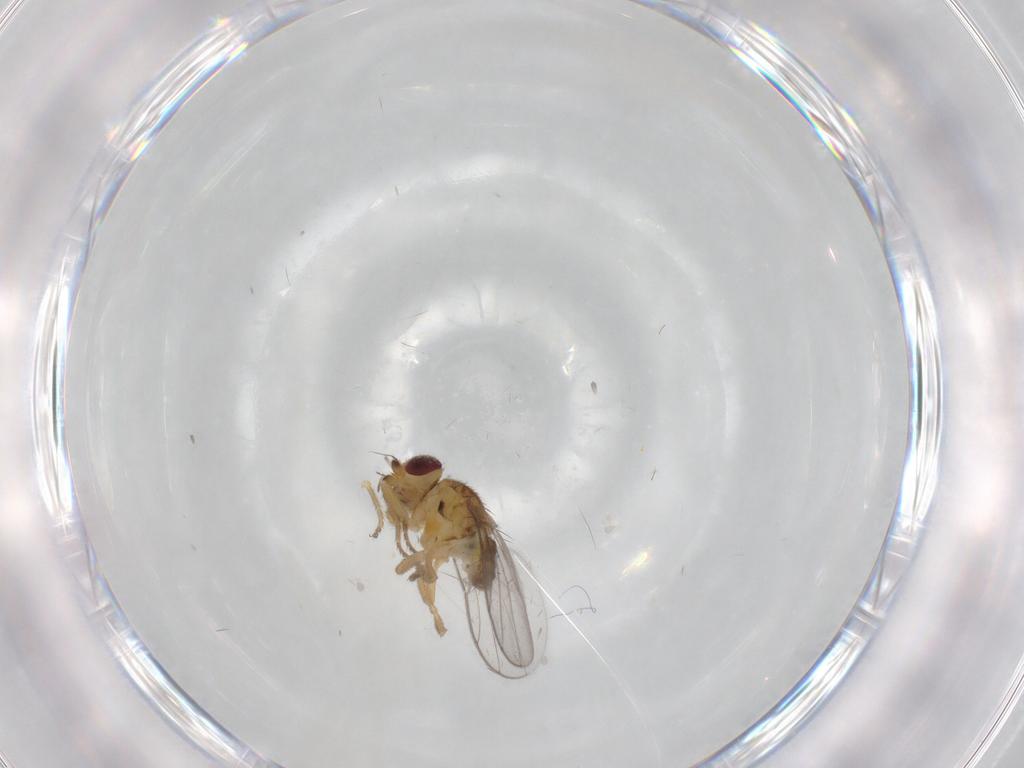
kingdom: Animalia
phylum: Arthropoda
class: Insecta
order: Diptera
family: Chloropidae
